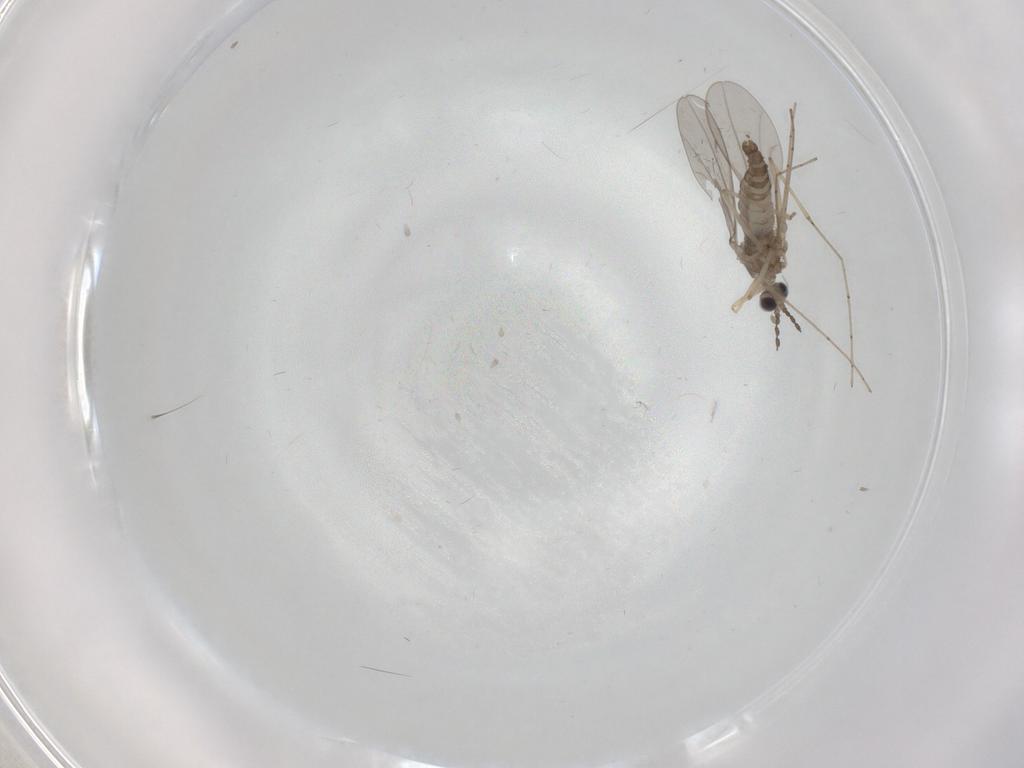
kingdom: Animalia
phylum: Arthropoda
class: Insecta
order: Diptera
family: Cecidomyiidae
